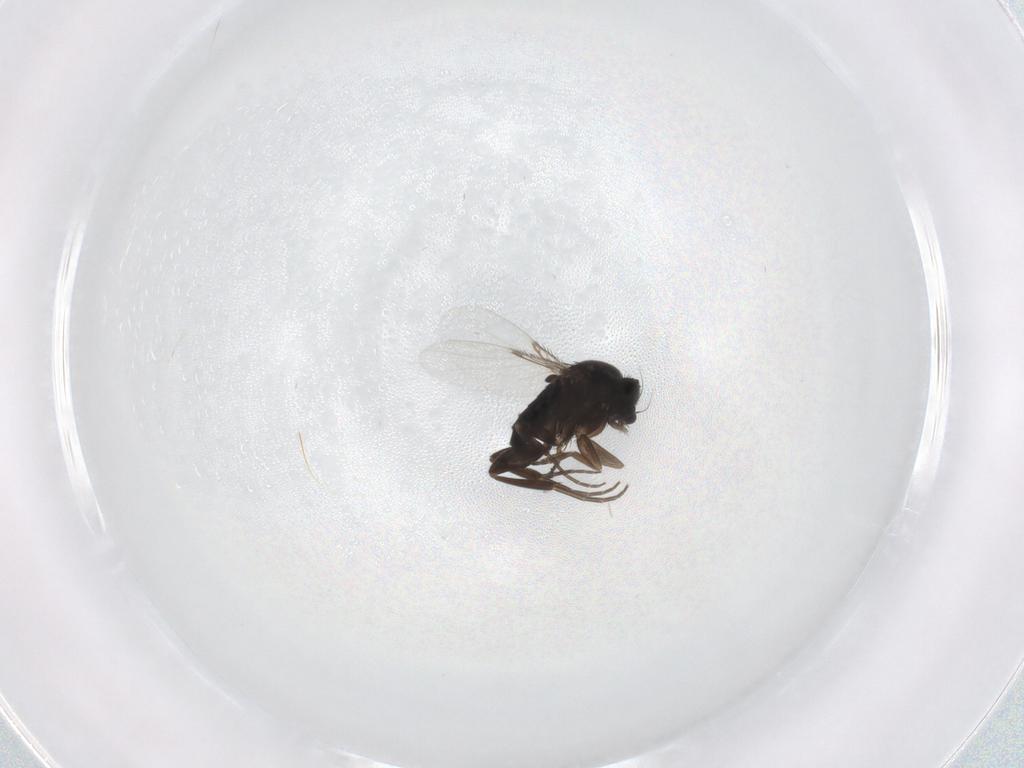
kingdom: Animalia
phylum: Arthropoda
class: Insecta
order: Diptera
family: Phoridae
